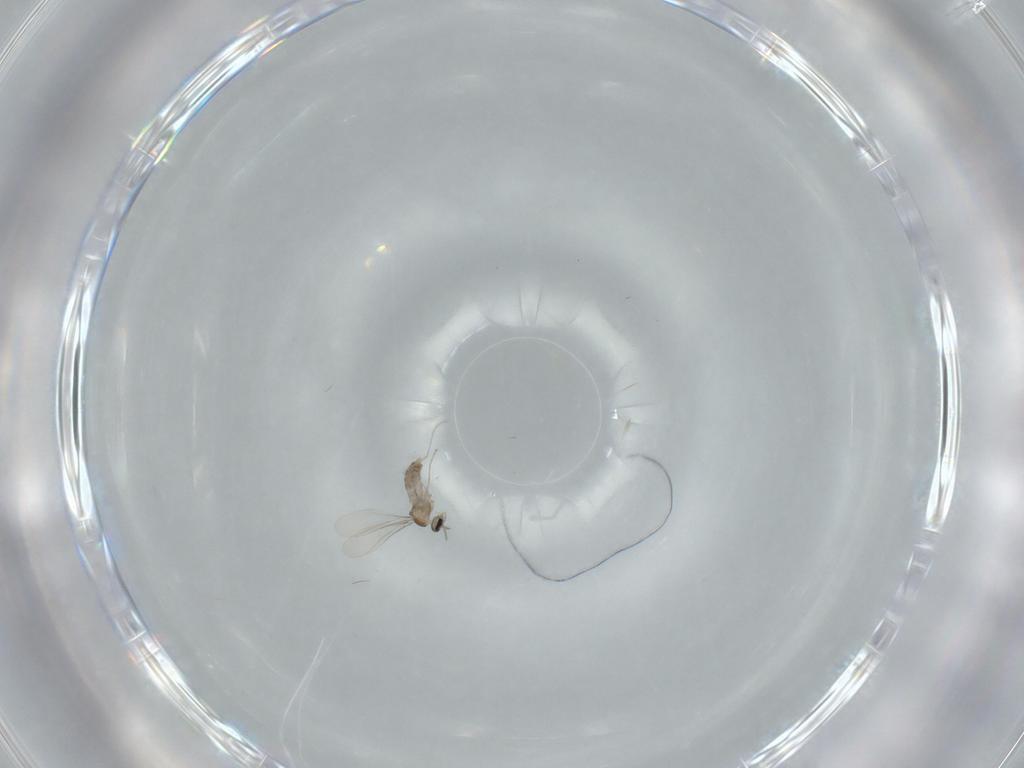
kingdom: Animalia
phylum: Arthropoda
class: Insecta
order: Diptera
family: Cecidomyiidae
